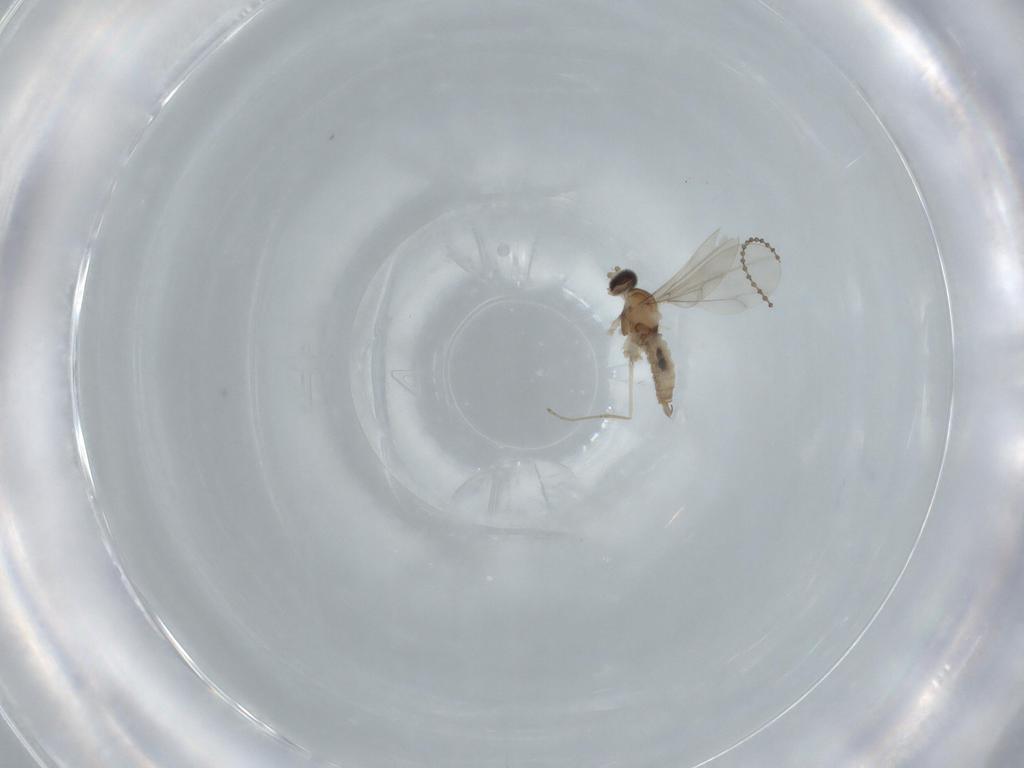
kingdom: Animalia
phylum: Arthropoda
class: Insecta
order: Diptera
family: Cecidomyiidae
